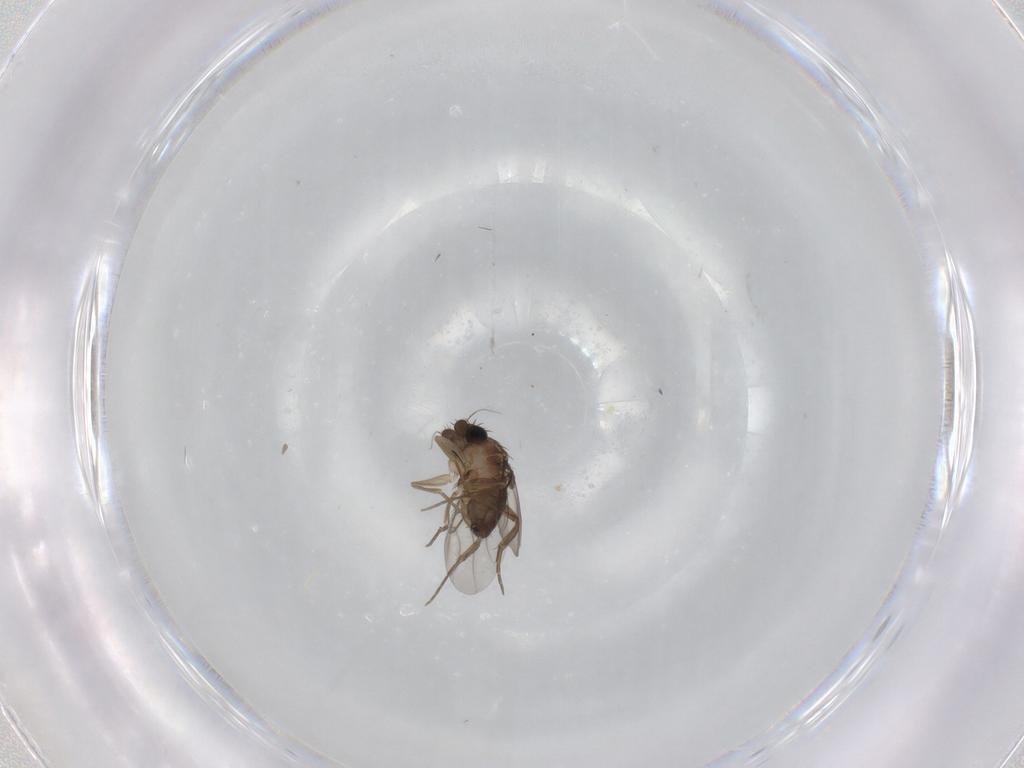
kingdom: Animalia
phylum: Arthropoda
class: Insecta
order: Diptera
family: Phoridae
